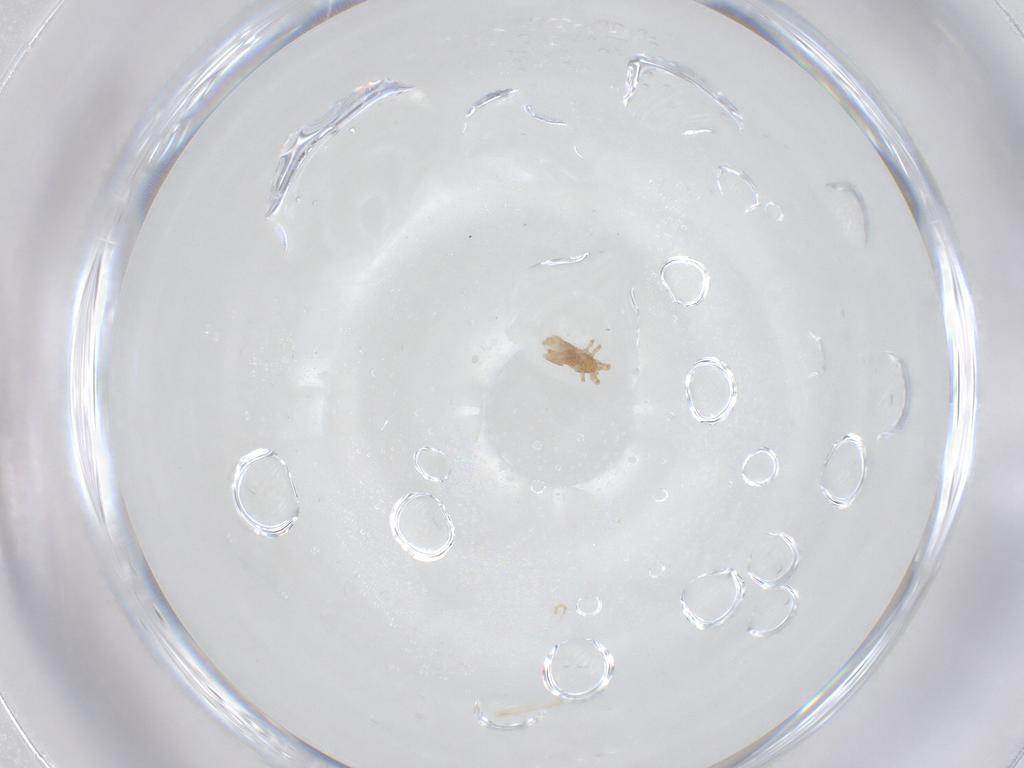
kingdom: Animalia
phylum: Arthropoda
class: Insecta
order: Hemiptera
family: Miridae
